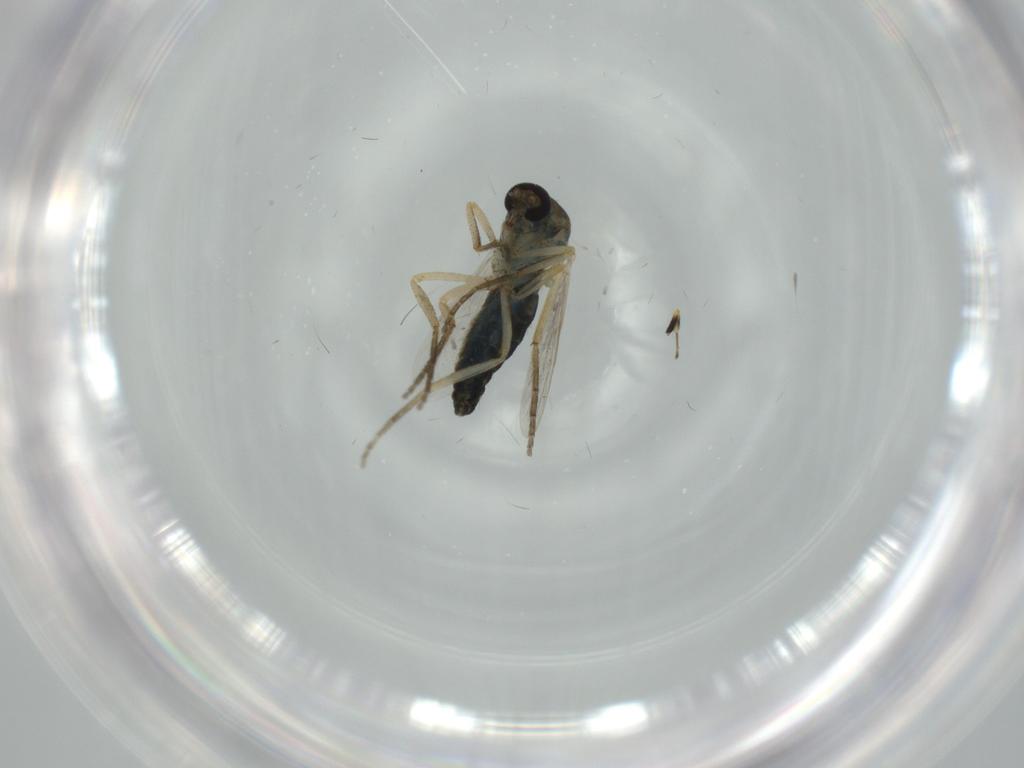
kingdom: Animalia
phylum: Arthropoda
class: Insecta
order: Diptera
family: Ceratopogonidae
